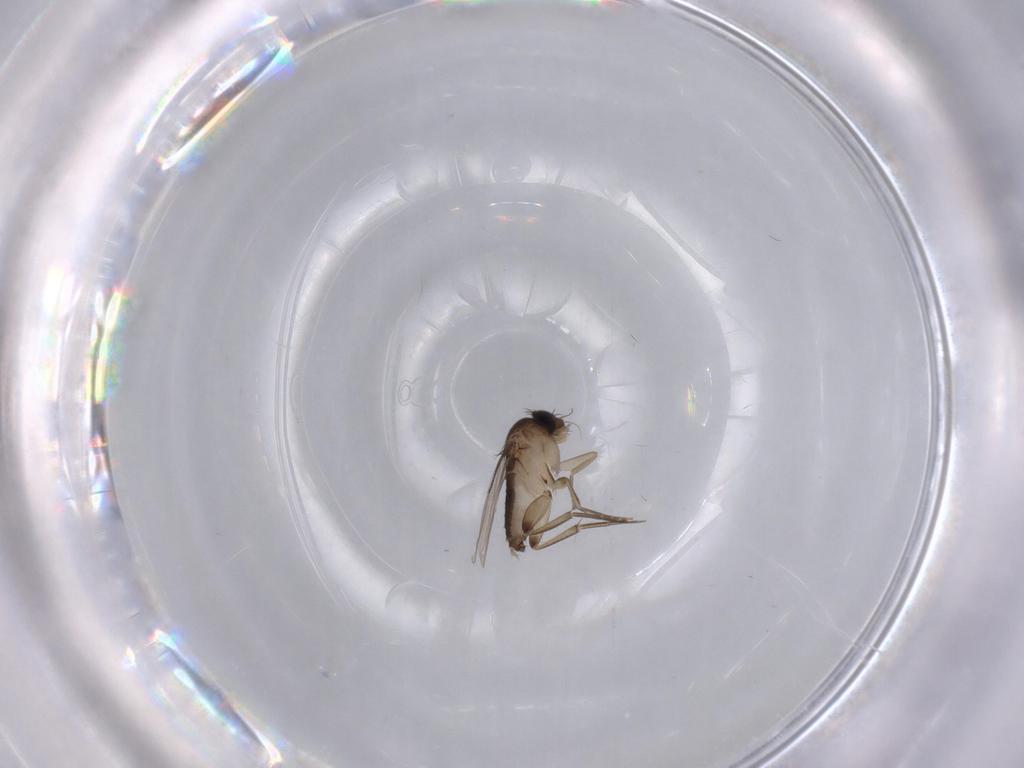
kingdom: Animalia
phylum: Arthropoda
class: Insecta
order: Diptera
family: Phoridae
